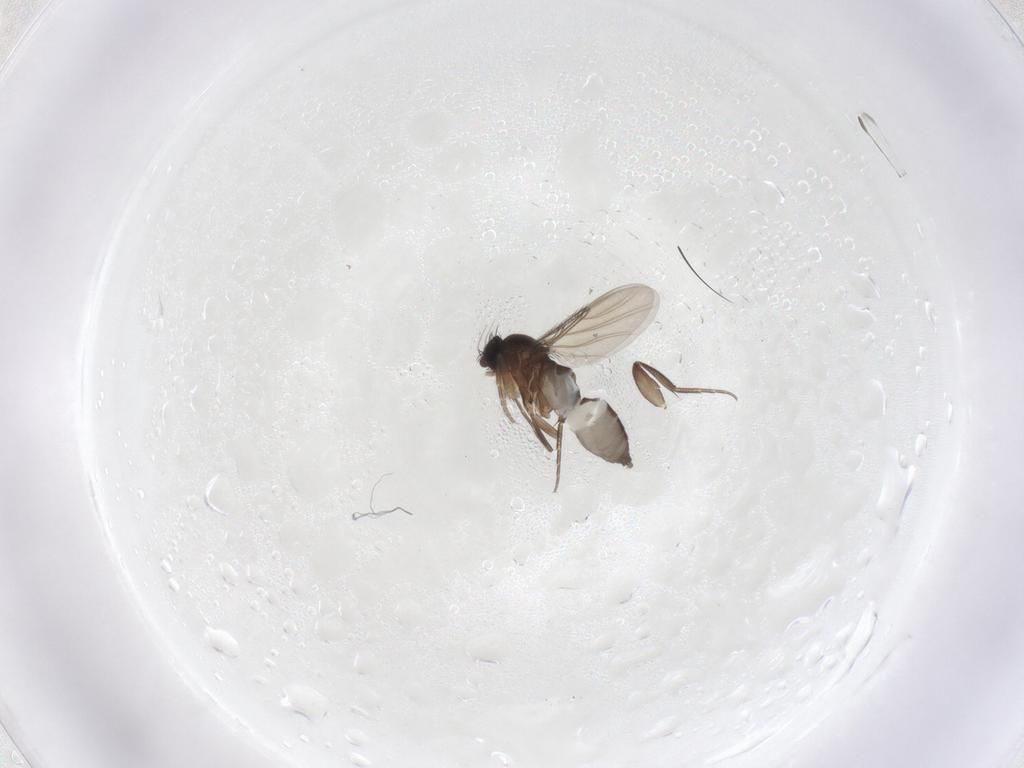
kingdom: Animalia
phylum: Arthropoda
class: Insecta
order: Diptera
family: Phoridae
